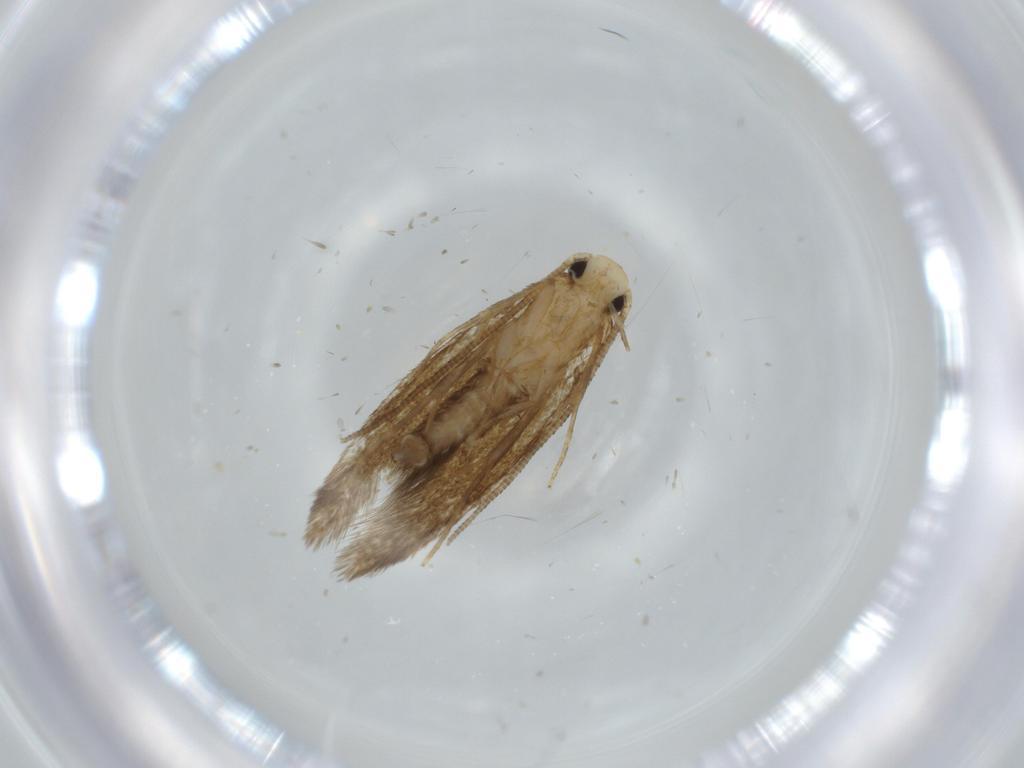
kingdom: Animalia
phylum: Arthropoda
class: Insecta
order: Lepidoptera
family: Tineidae
